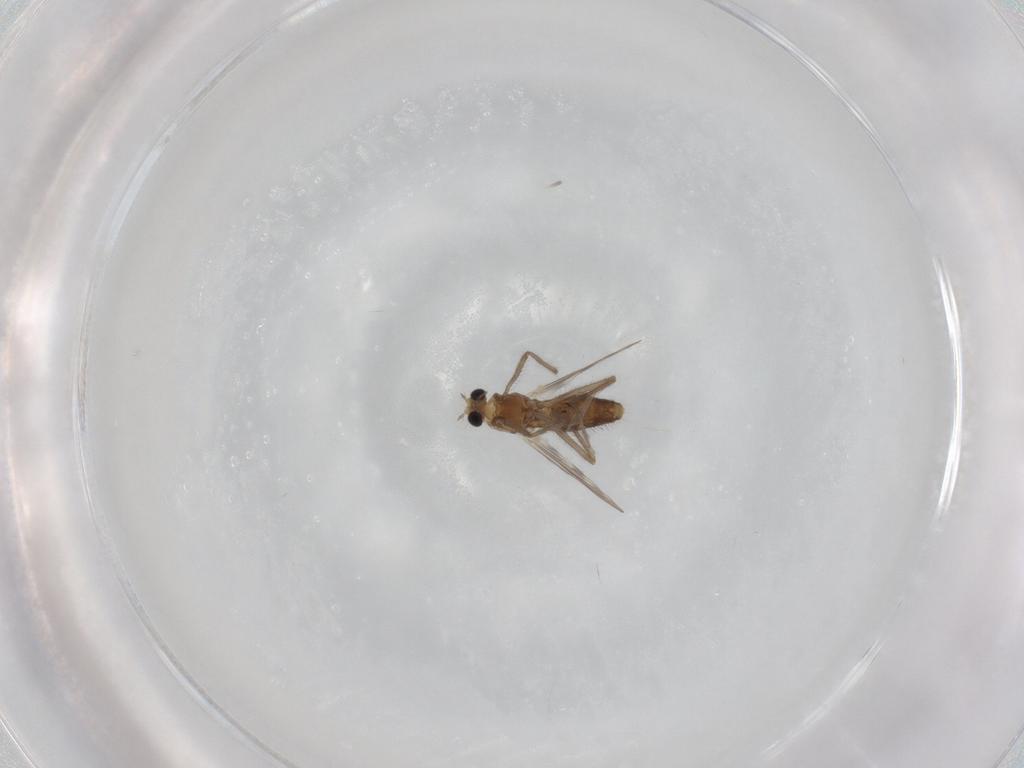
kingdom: Animalia
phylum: Arthropoda
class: Insecta
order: Diptera
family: Chironomidae
